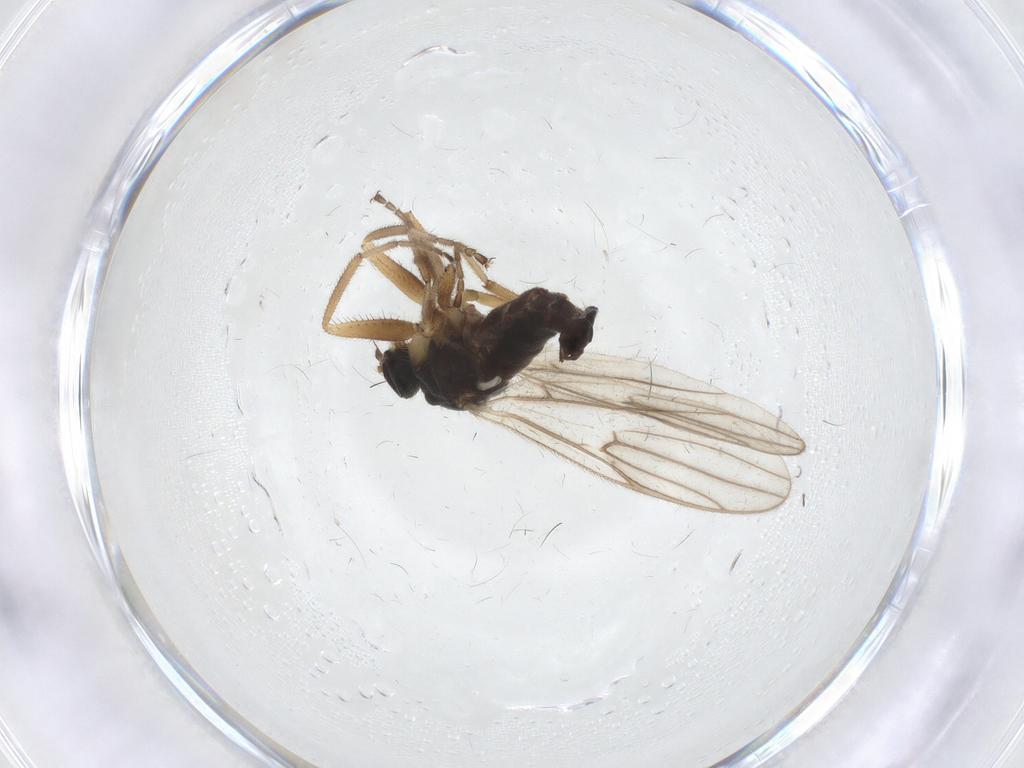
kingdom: Animalia
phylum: Arthropoda
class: Insecta
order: Diptera
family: Hybotidae
